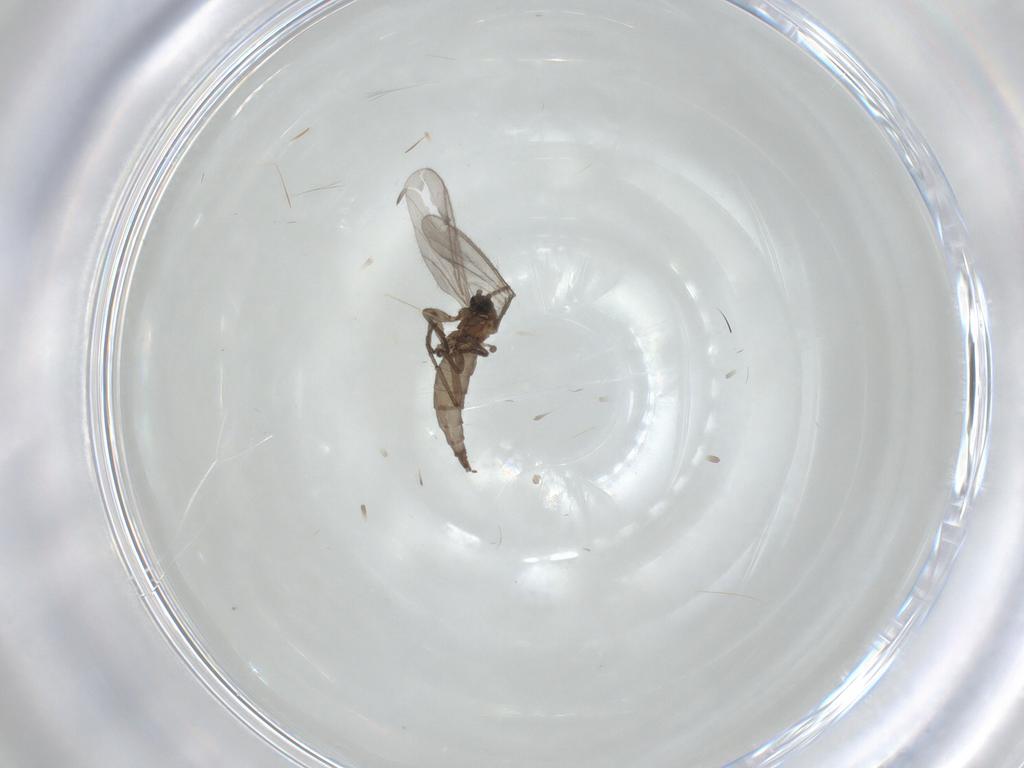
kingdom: Animalia
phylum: Arthropoda
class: Insecta
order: Diptera
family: Sciaridae
